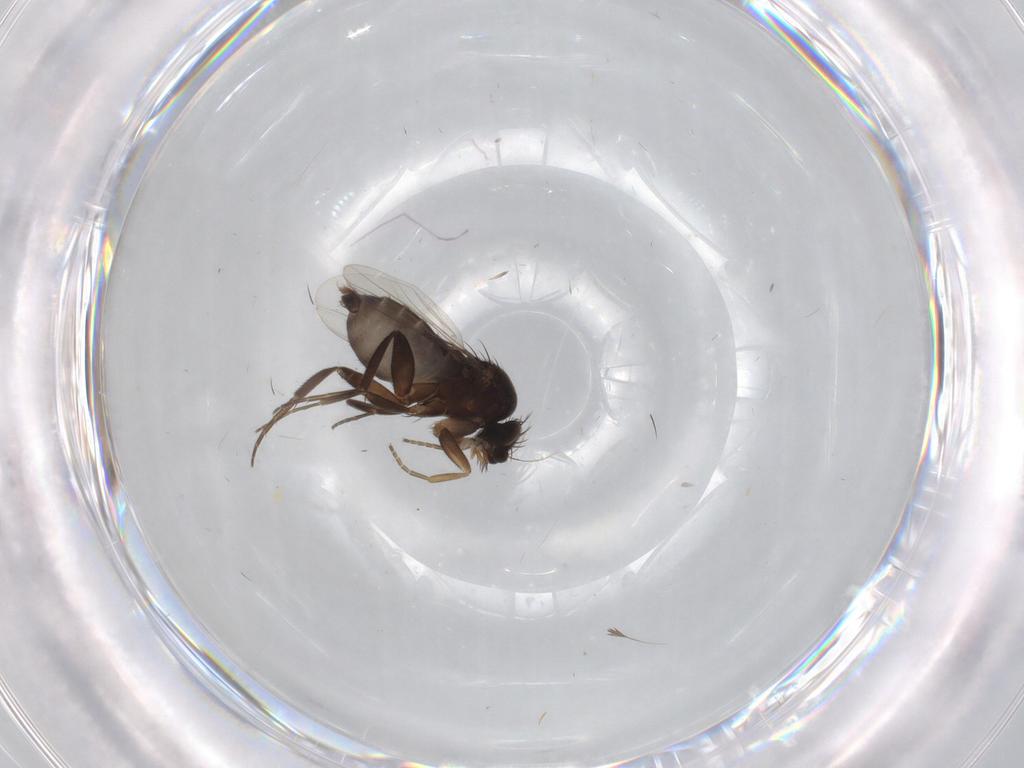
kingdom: Animalia
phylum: Arthropoda
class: Insecta
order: Diptera
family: Phoridae
